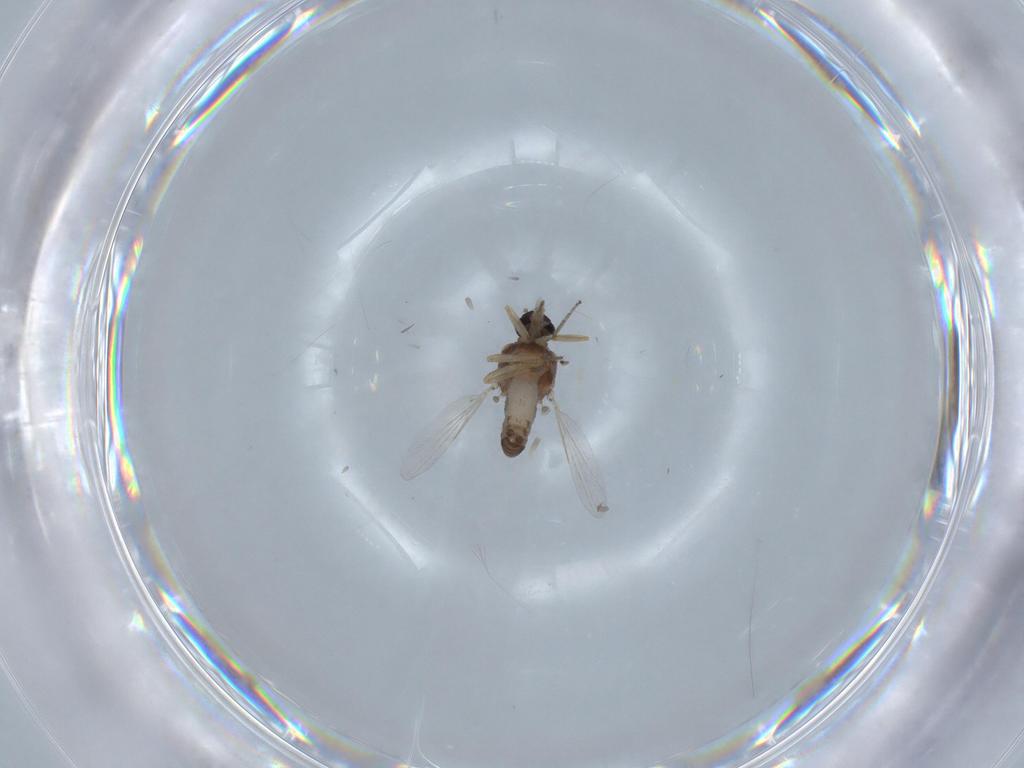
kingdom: Animalia
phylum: Arthropoda
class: Insecta
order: Diptera
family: Ceratopogonidae
